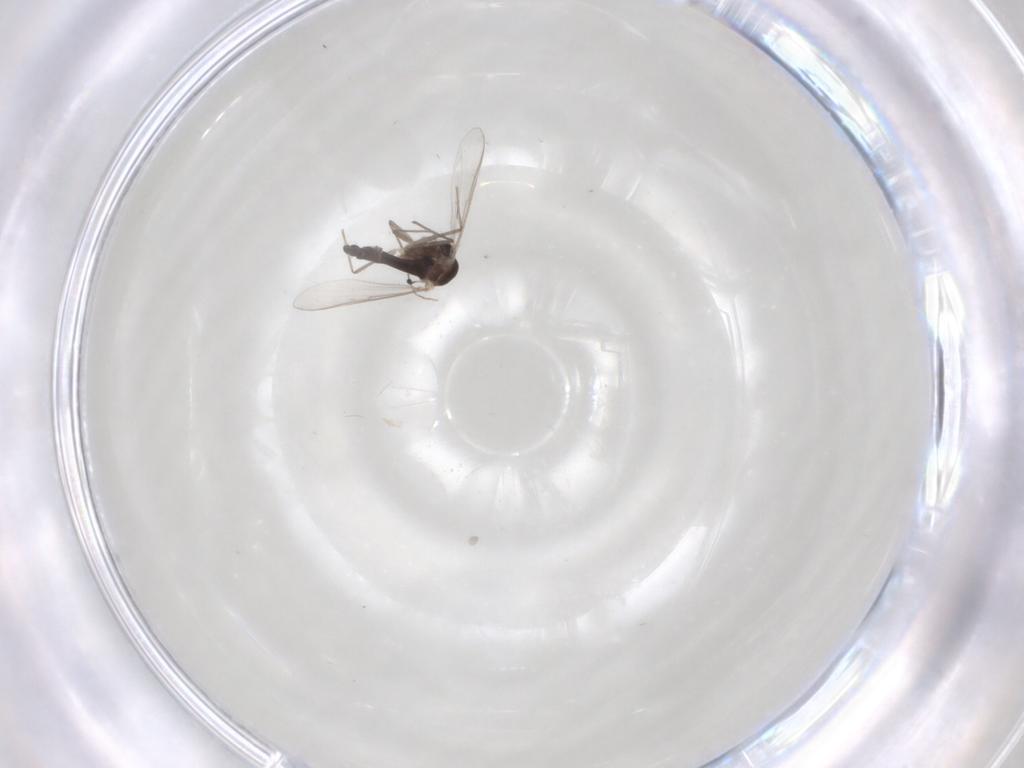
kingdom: Animalia
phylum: Arthropoda
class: Insecta
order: Diptera
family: Chironomidae
